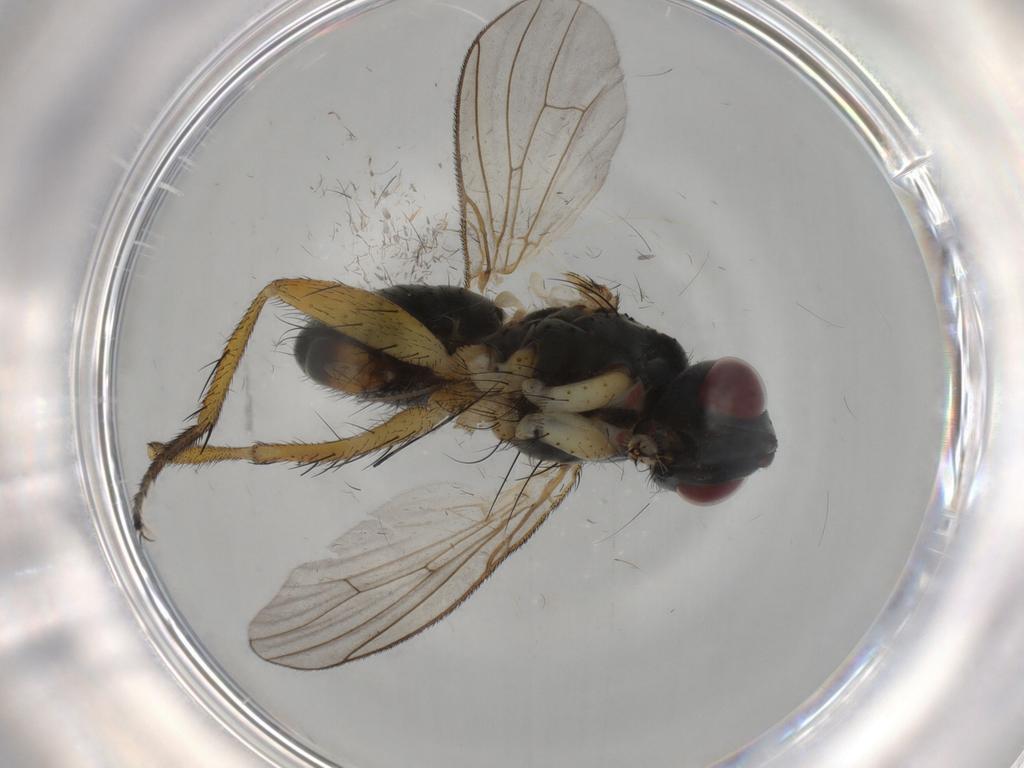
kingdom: Animalia
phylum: Arthropoda
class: Insecta
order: Diptera
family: Muscidae
